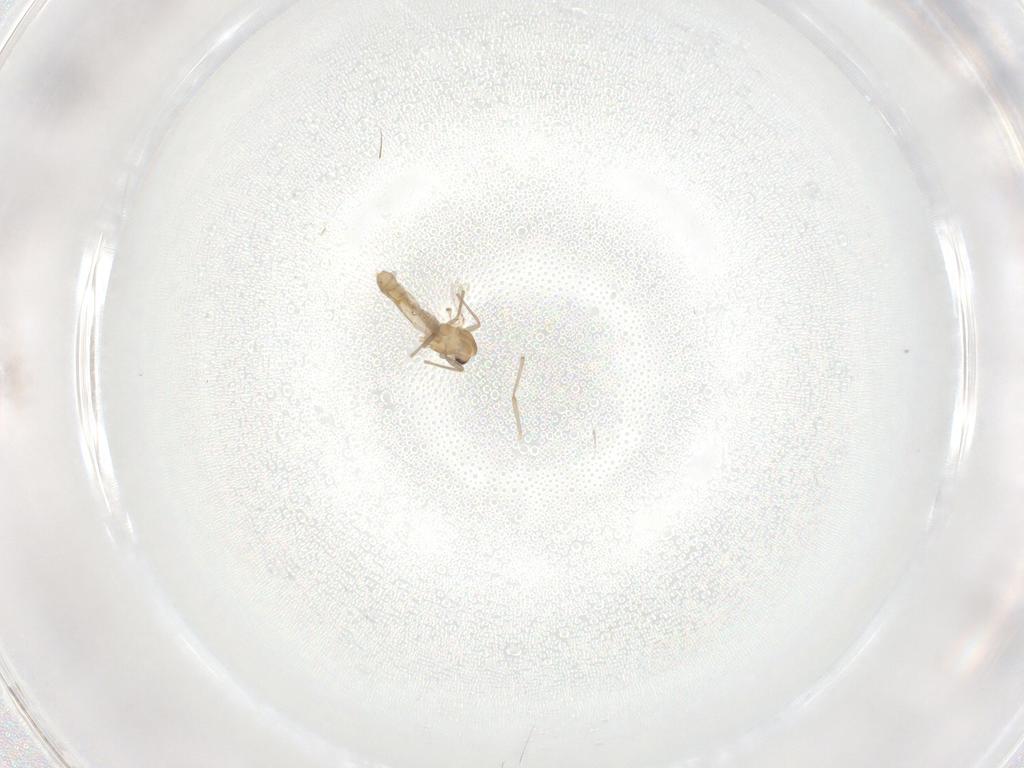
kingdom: Animalia
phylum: Arthropoda
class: Insecta
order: Diptera
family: Chironomidae
